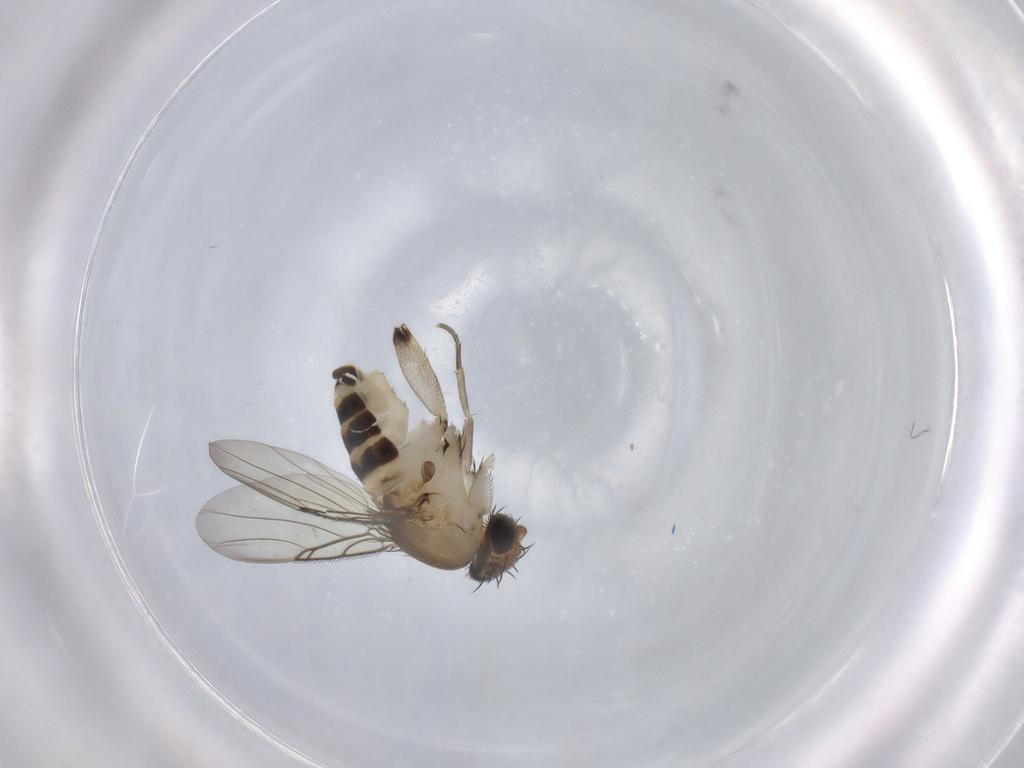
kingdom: Animalia
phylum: Arthropoda
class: Insecta
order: Diptera
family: Phoridae
